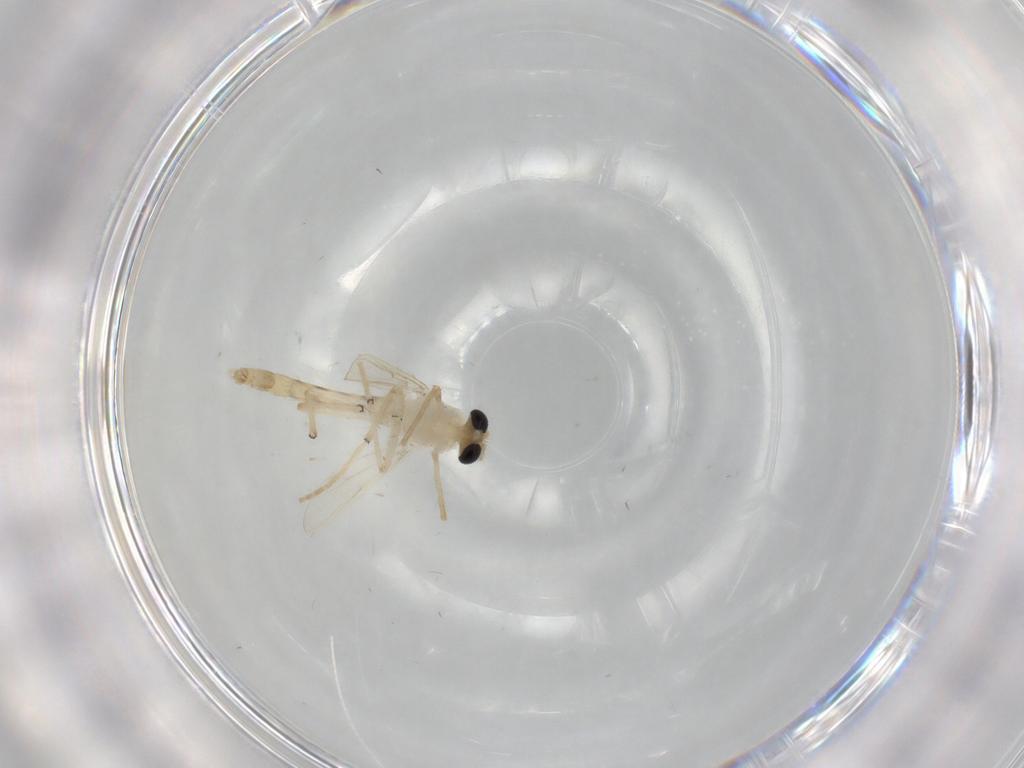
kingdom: Animalia
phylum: Arthropoda
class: Insecta
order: Diptera
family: Chironomidae
